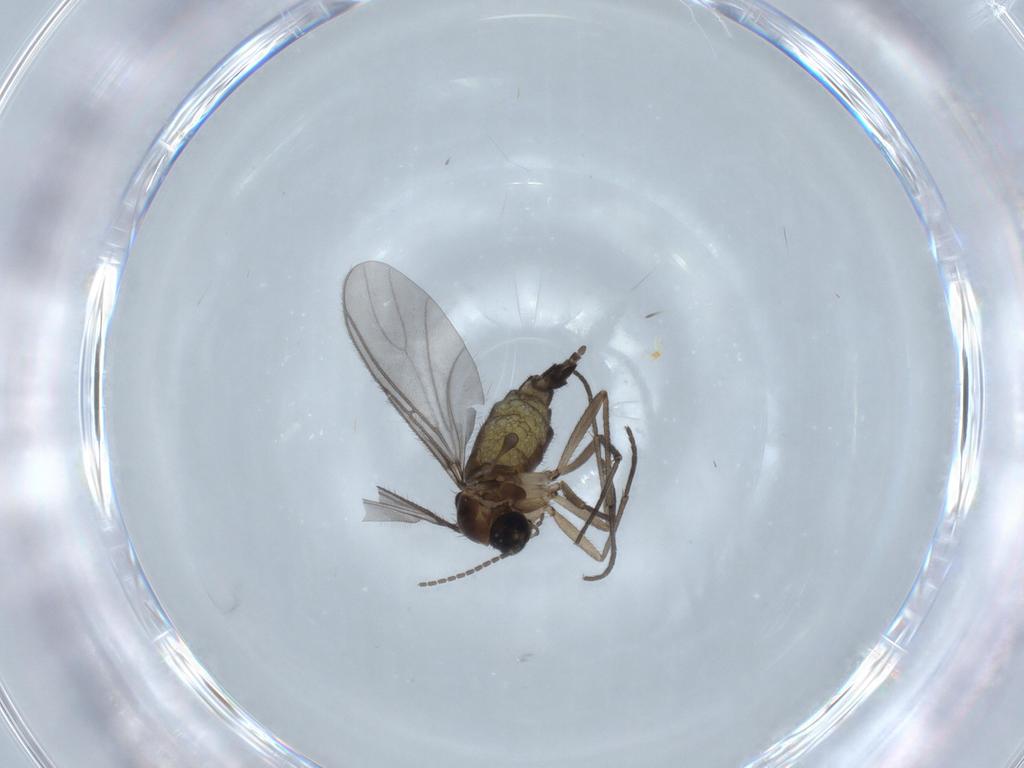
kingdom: Animalia
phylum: Arthropoda
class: Insecta
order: Diptera
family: Sciaridae
